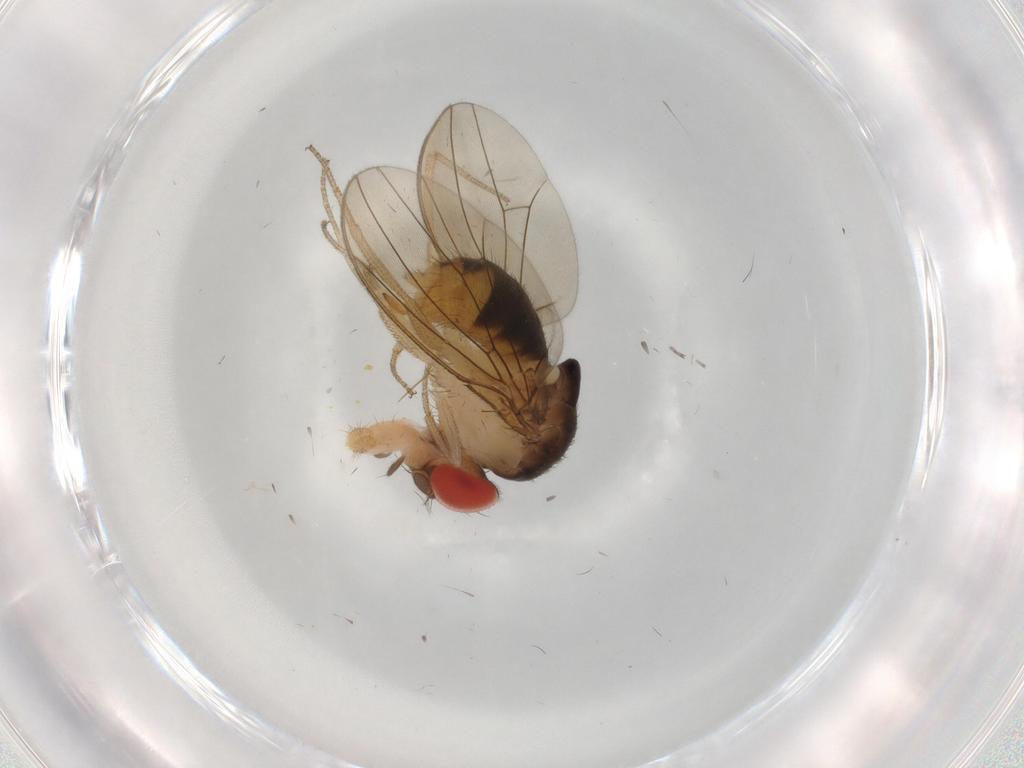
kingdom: Animalia
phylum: Arthropoda
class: Insecta
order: Diptera
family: Drosophilidae
